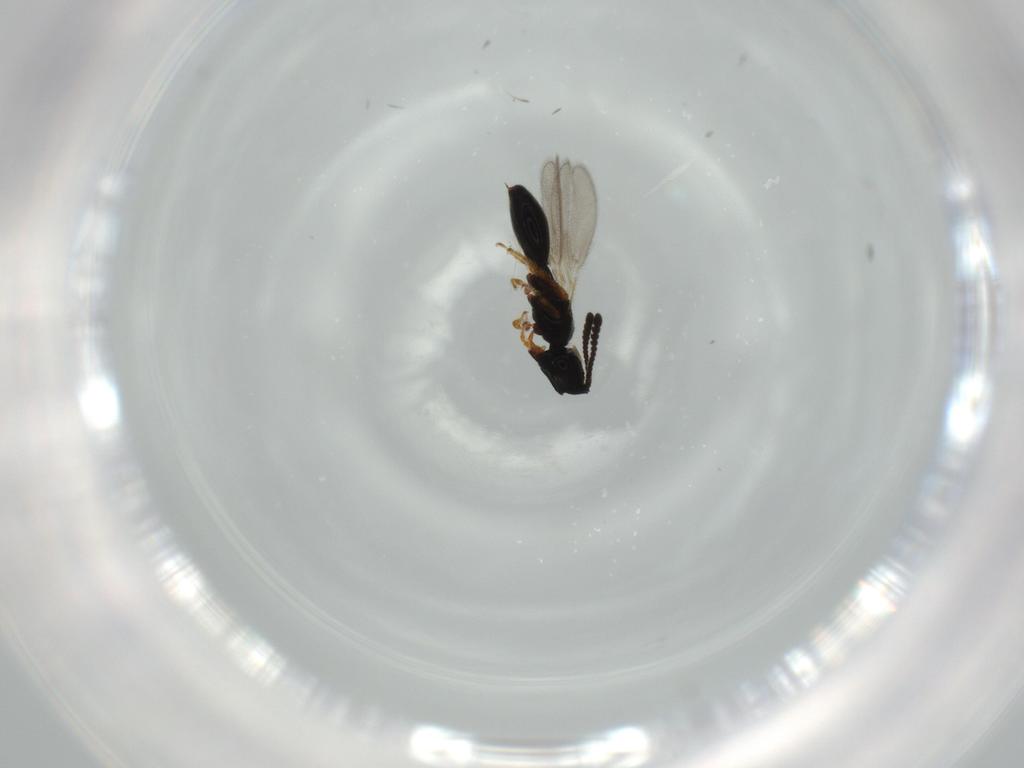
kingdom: Animalia
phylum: Arthropoda
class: Insecta
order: Hymenoptera
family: Diapriidae
